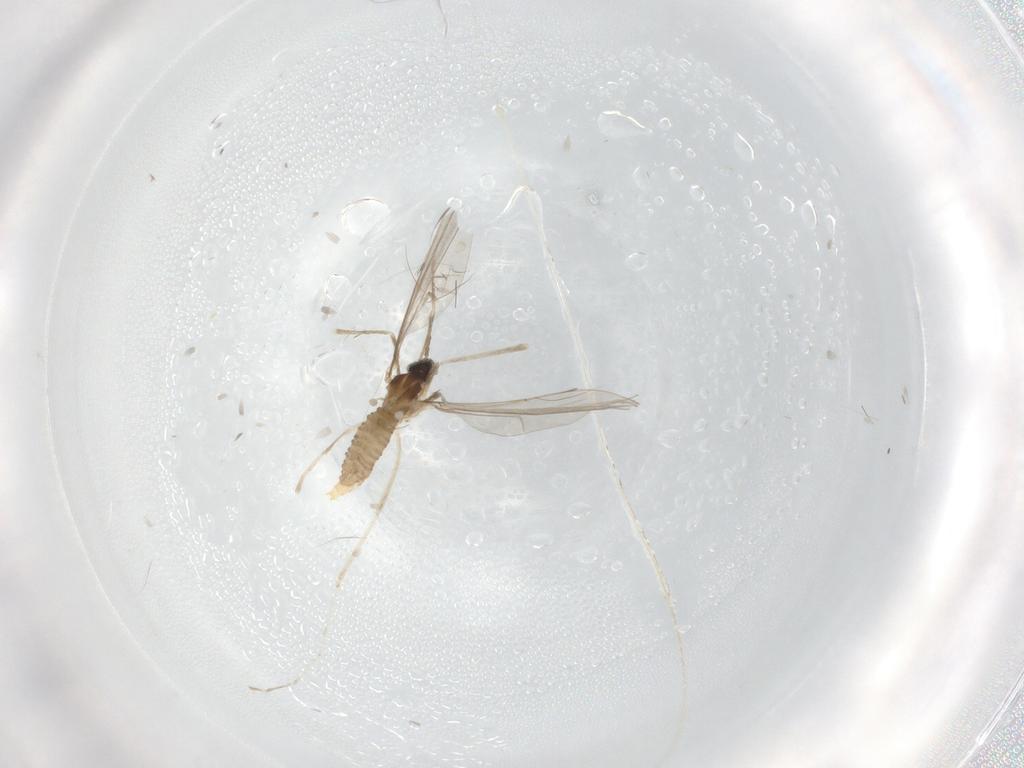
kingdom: Animalia
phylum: Arthropoda
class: Insecta
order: Diptera
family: Cecidomyiidae
